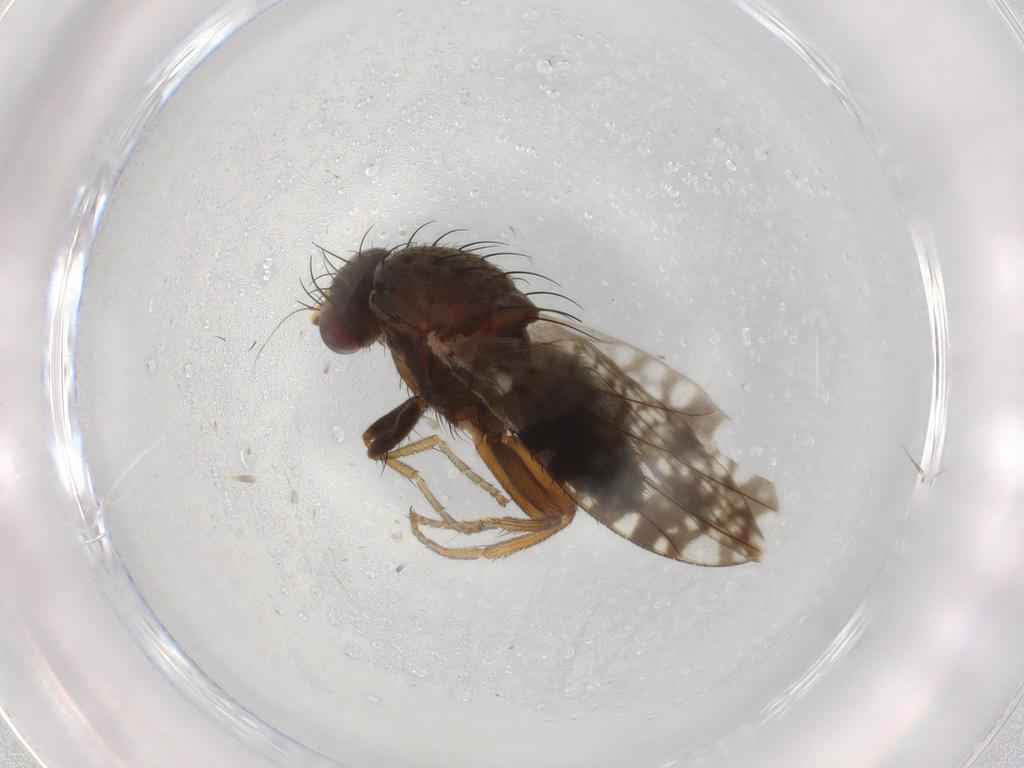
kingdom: Animalia
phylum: Arthropoda
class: Insecta
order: Diptera
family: Tephritidae
